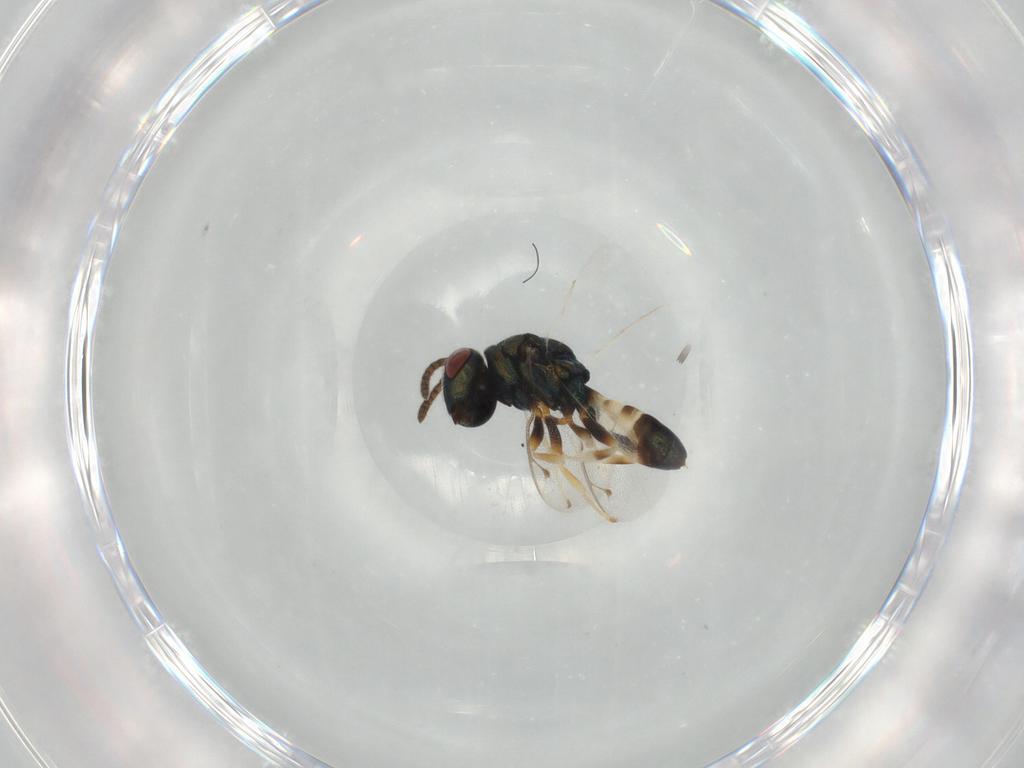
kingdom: Animalia
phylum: Arthropoda
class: Insecta
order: Hymenoptera
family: Pteromalidae
